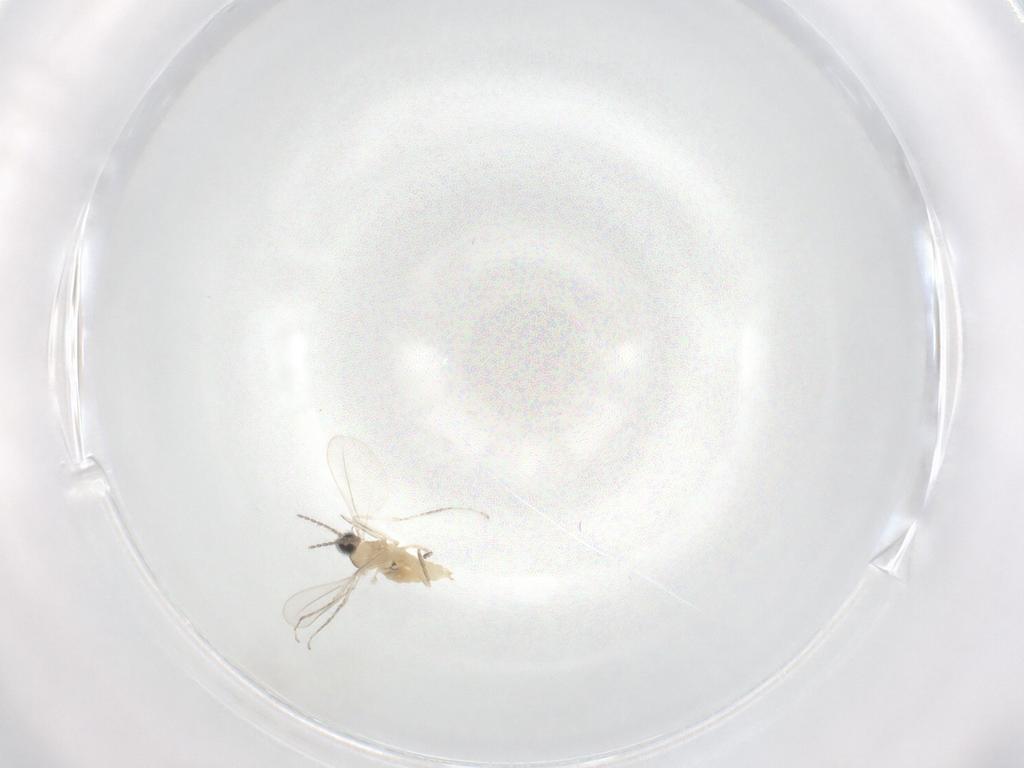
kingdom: Animalia
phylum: Arthropoda
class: Insecta
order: Diptera
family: Cecidomyiidae
